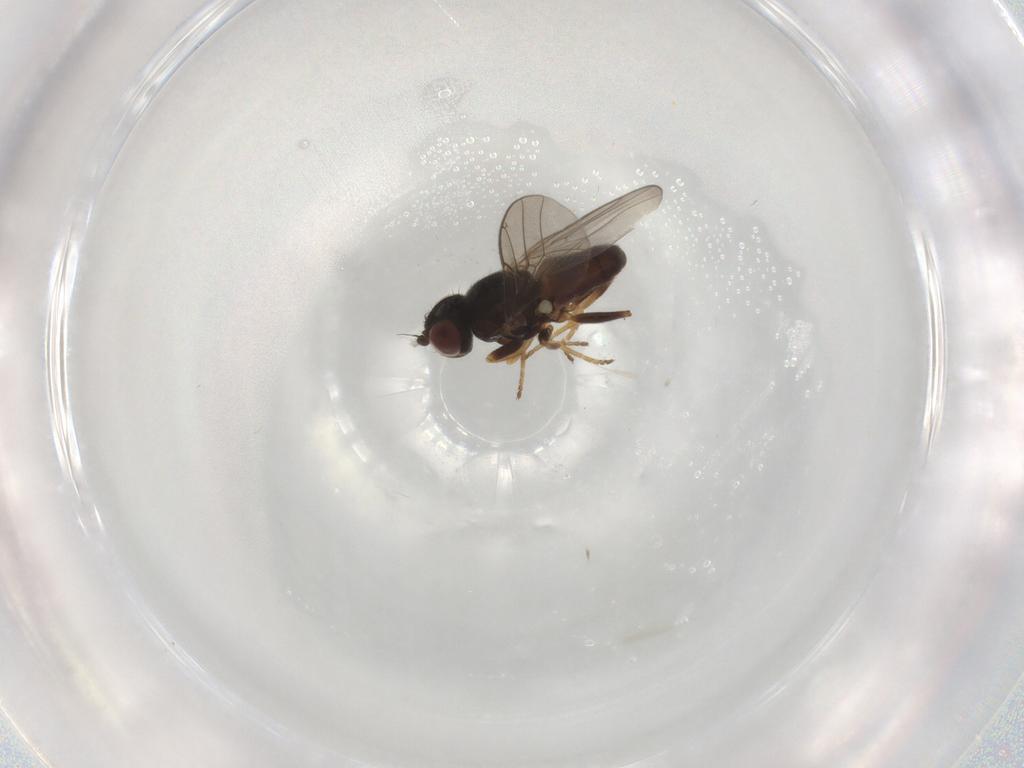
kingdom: Animalia
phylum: Arthropoda
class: Insecta
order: Diptera
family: Chloropidae
